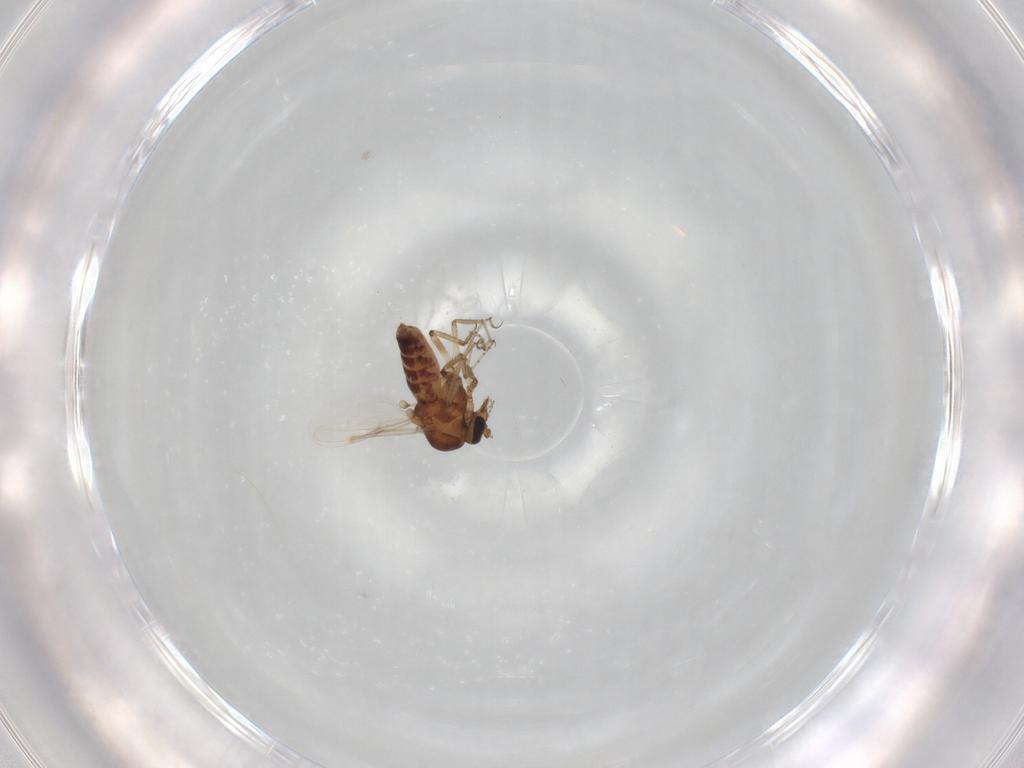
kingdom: Animalia
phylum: Arthropoda
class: Insecta
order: Diptera
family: Ceratopogonidae
